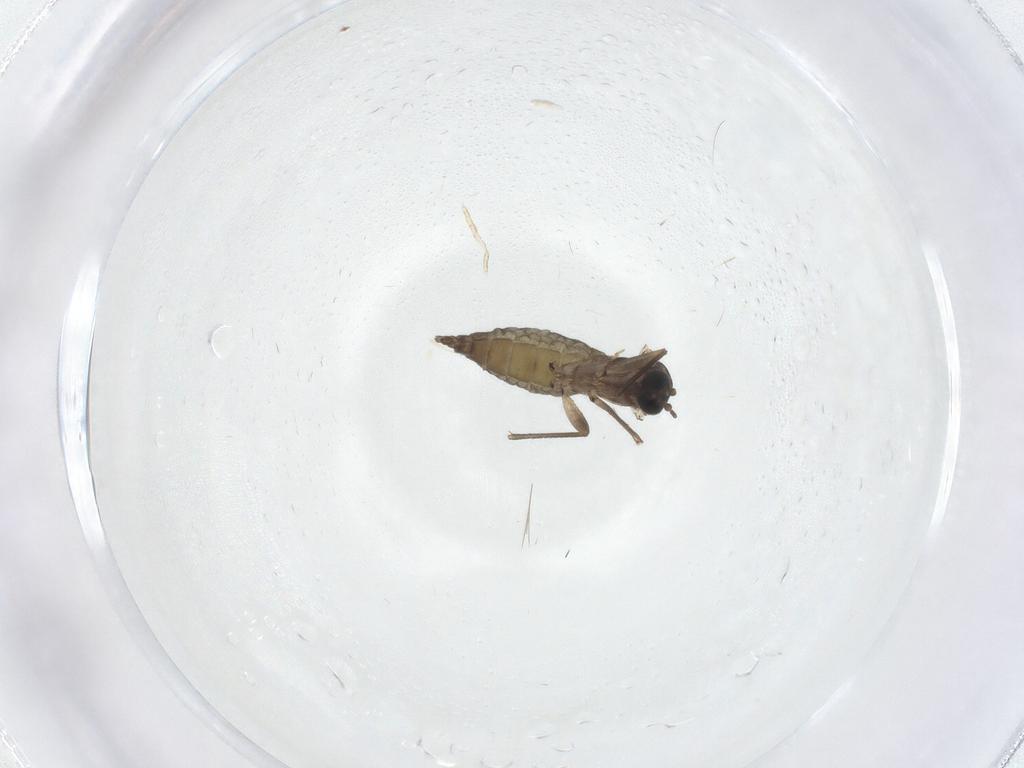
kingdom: Animalia
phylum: Arthropoda
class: Insecta
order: Diptera
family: Sciaridae
